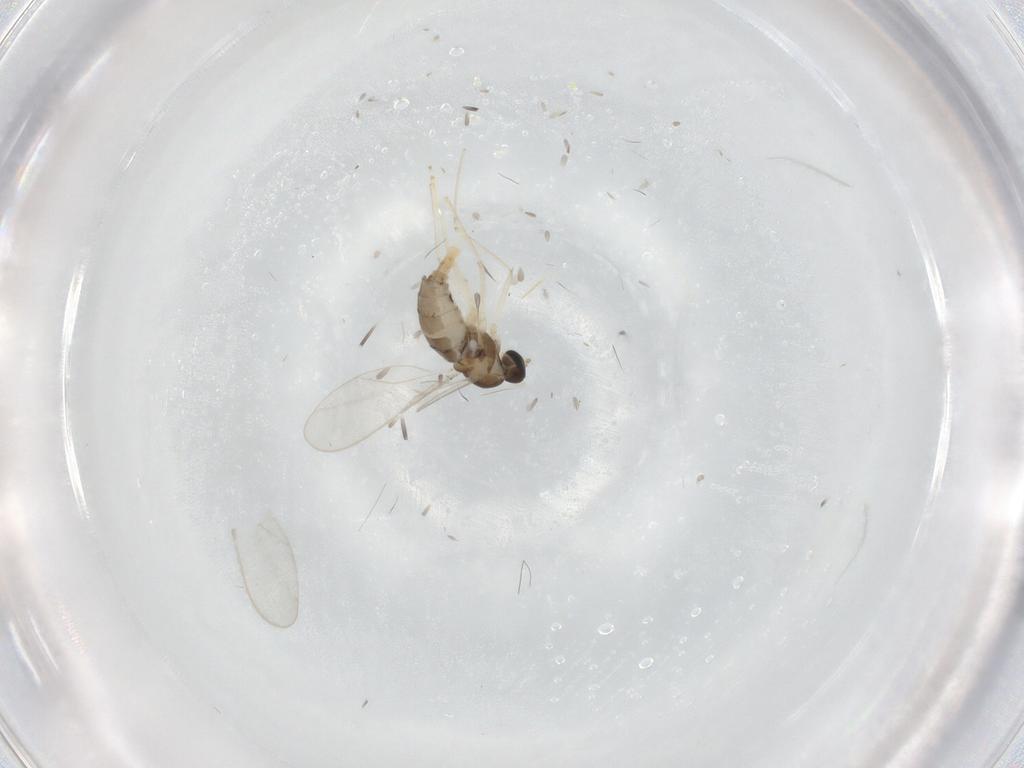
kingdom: Animalia
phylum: Arthropoda
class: Insecta
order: Diptera
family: Cecidomyiidae
